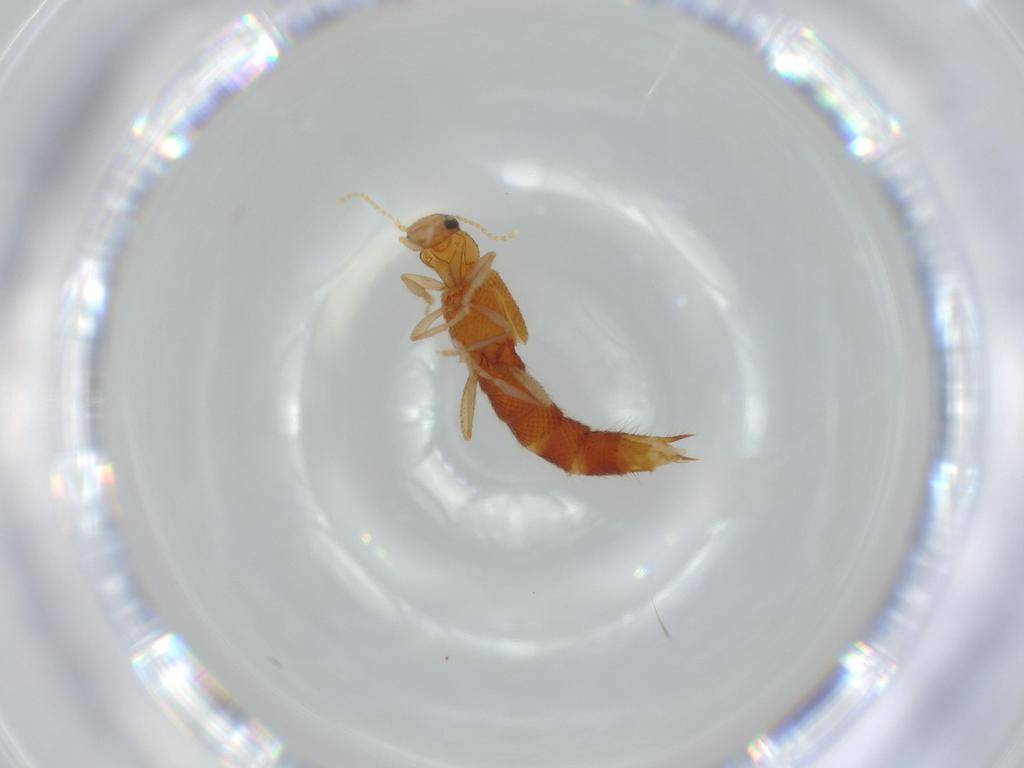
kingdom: Animalia
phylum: Arthropoda
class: Insecta
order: Coleoptera
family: Staphylinidae
